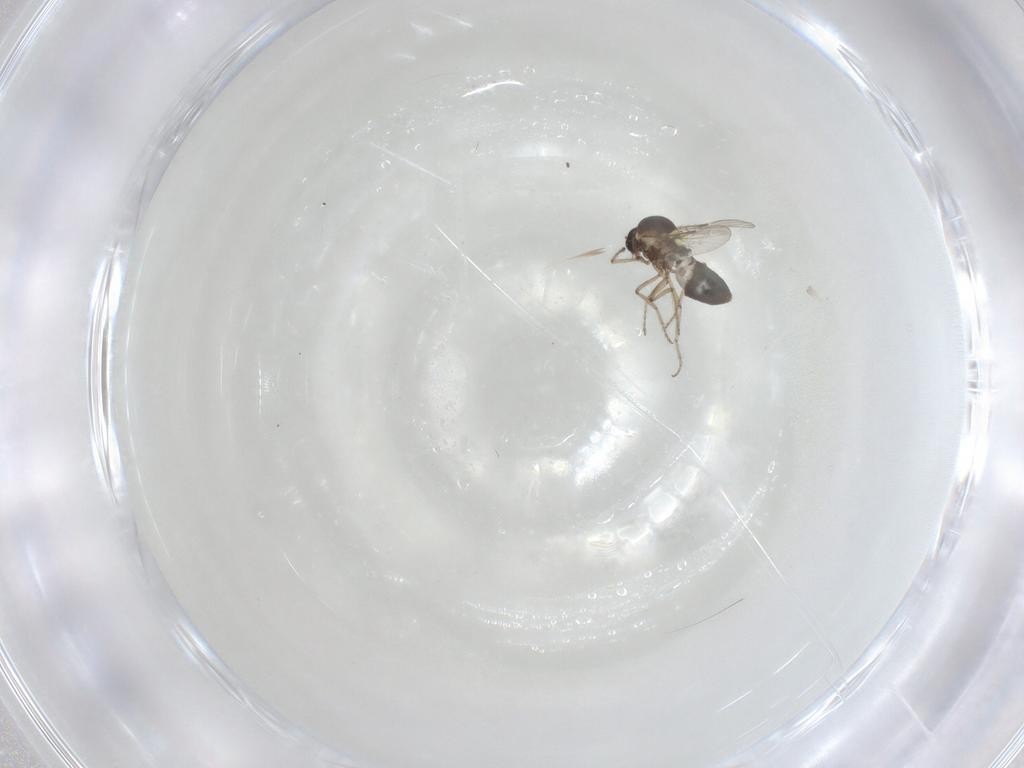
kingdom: Animalia
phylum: Arthropoda
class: Insecta
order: Diptera
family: Ceratopogonidae
